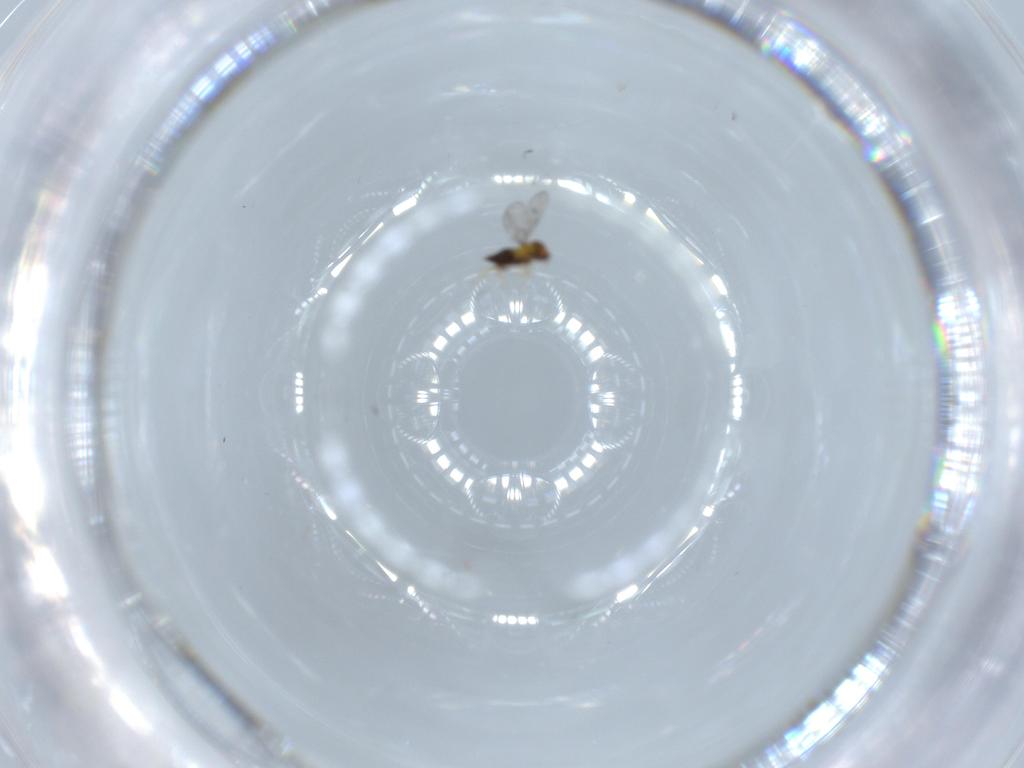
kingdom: Animalia
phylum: Arthropoda
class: Insecta
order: Hymenoptera
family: Trichogrammatidae
